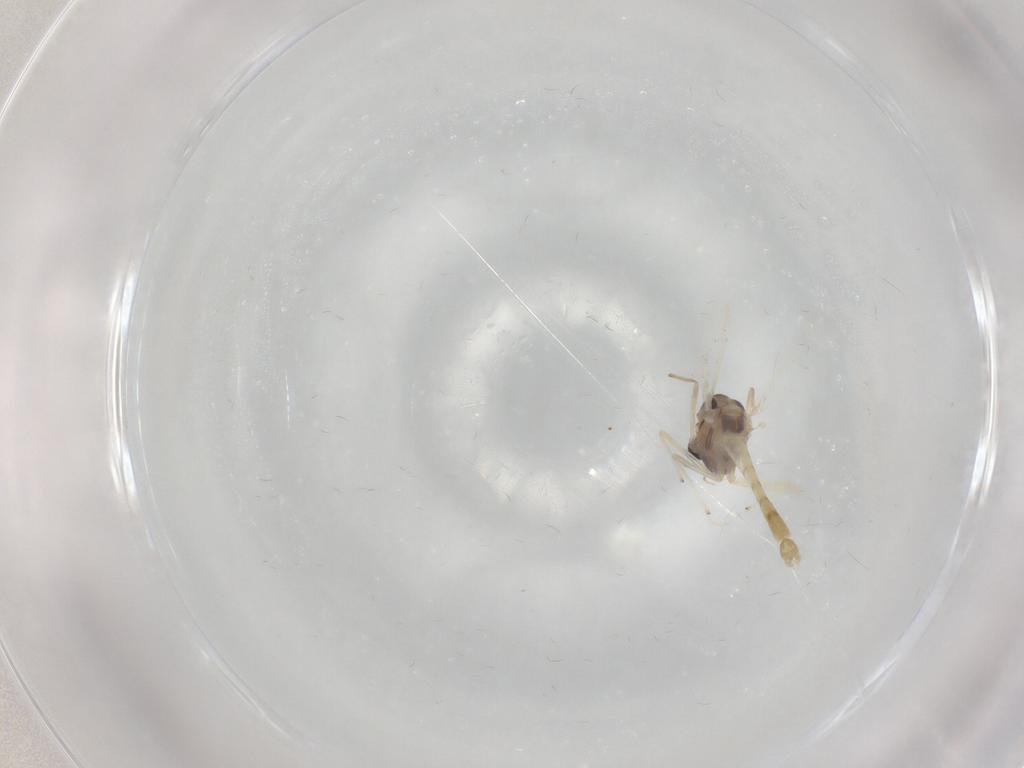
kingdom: Animalia
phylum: Arthropoda
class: Insecta
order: Diptera
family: Chironomidae
